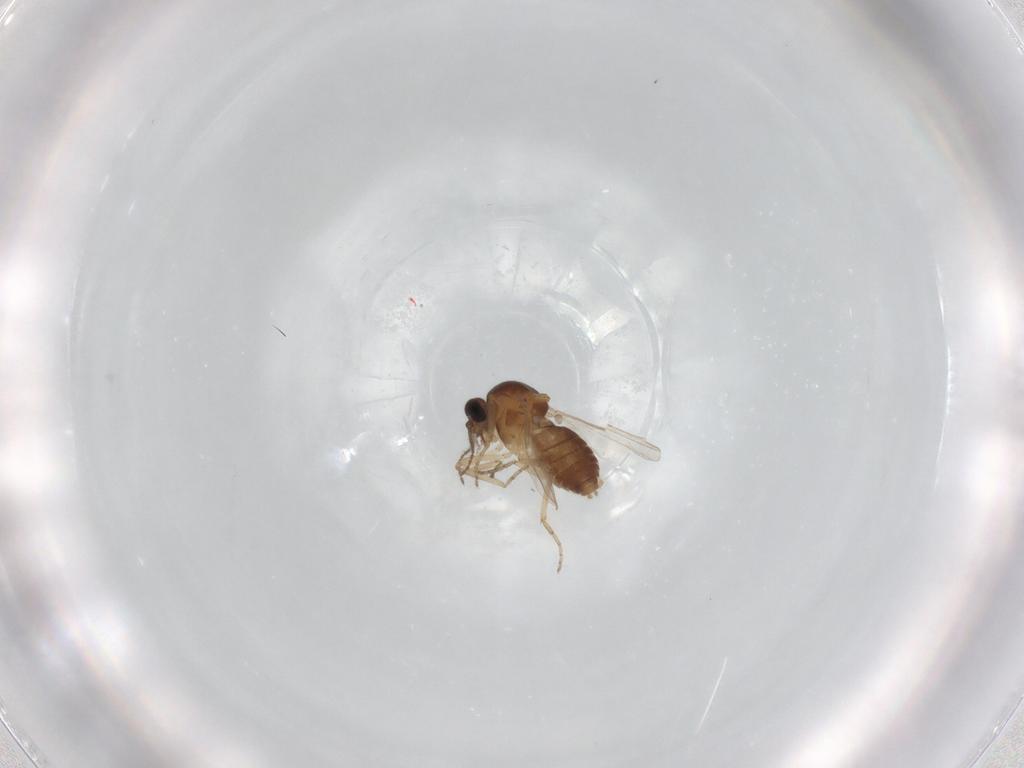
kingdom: Animalia
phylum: Arthropoda
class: Insecta
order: Diptera
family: Ceratopogonidae
